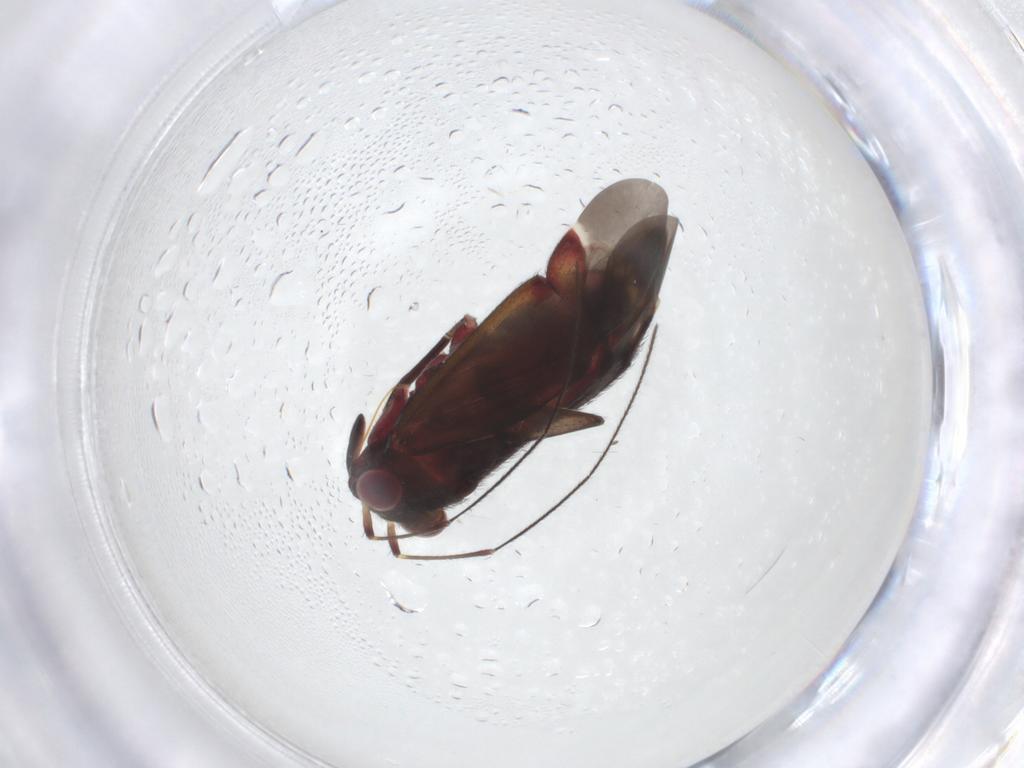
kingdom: Animalia
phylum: Arthropoda
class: Insecta
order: Hemiptera
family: Miridae
